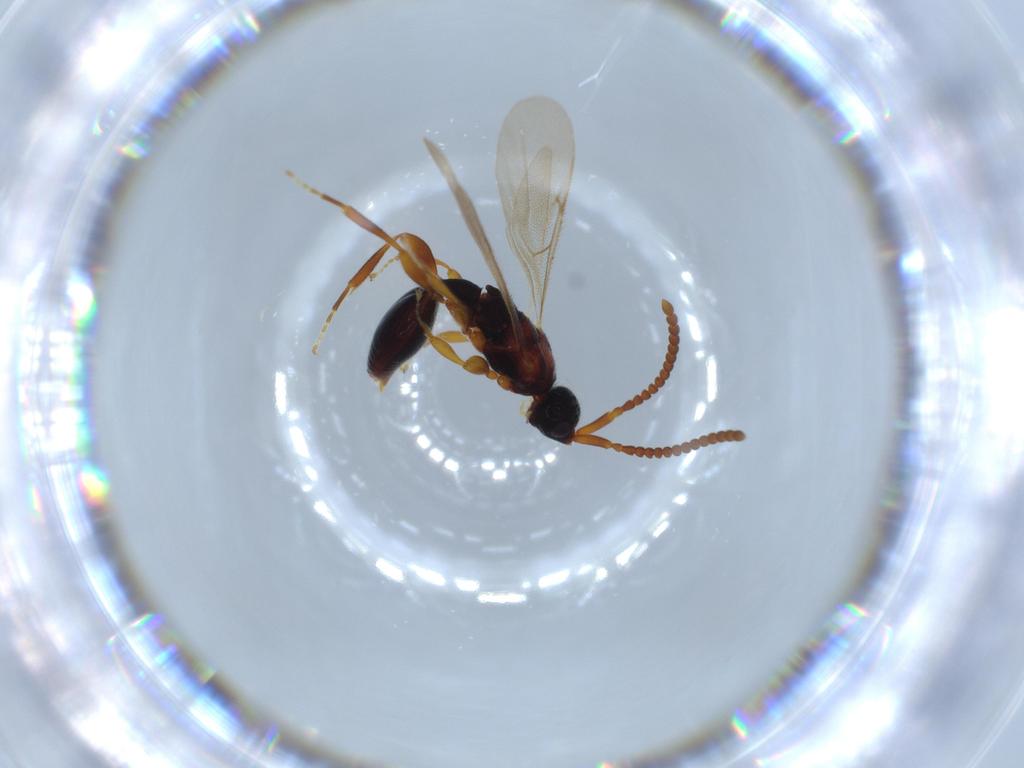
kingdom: Animalia
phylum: Arthropoda
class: Insecta
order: Hymenoptera
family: Diapriidae
